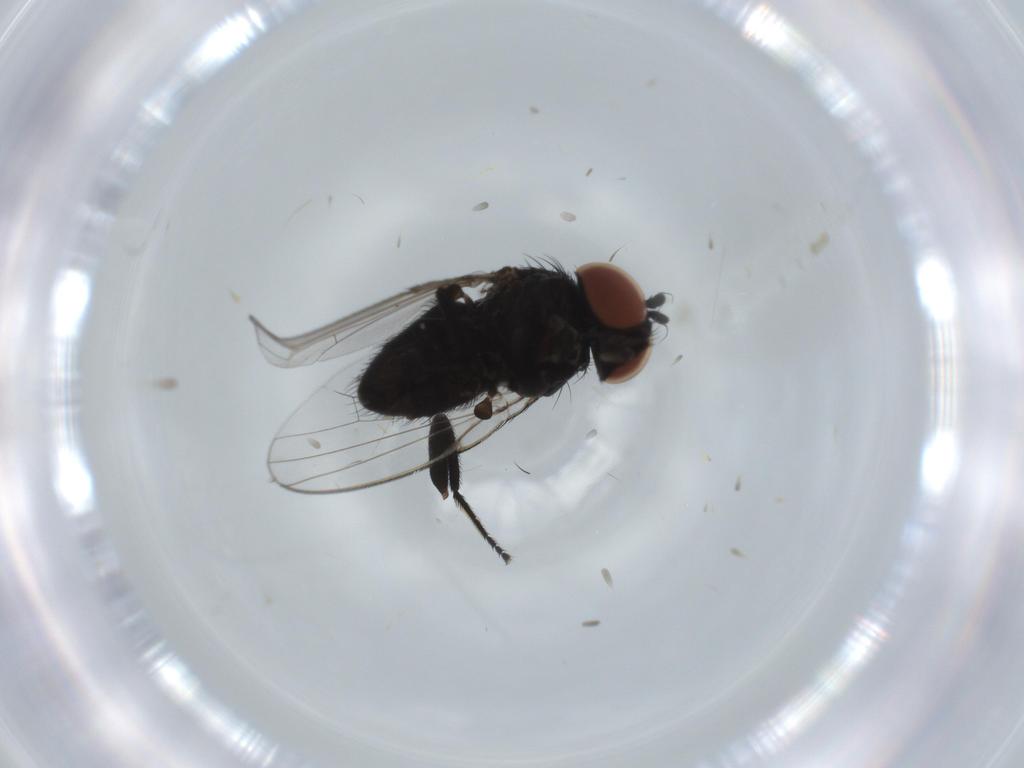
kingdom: Animalia
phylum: Arthropoda
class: Insecta
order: Diptera
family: Milichiidae
